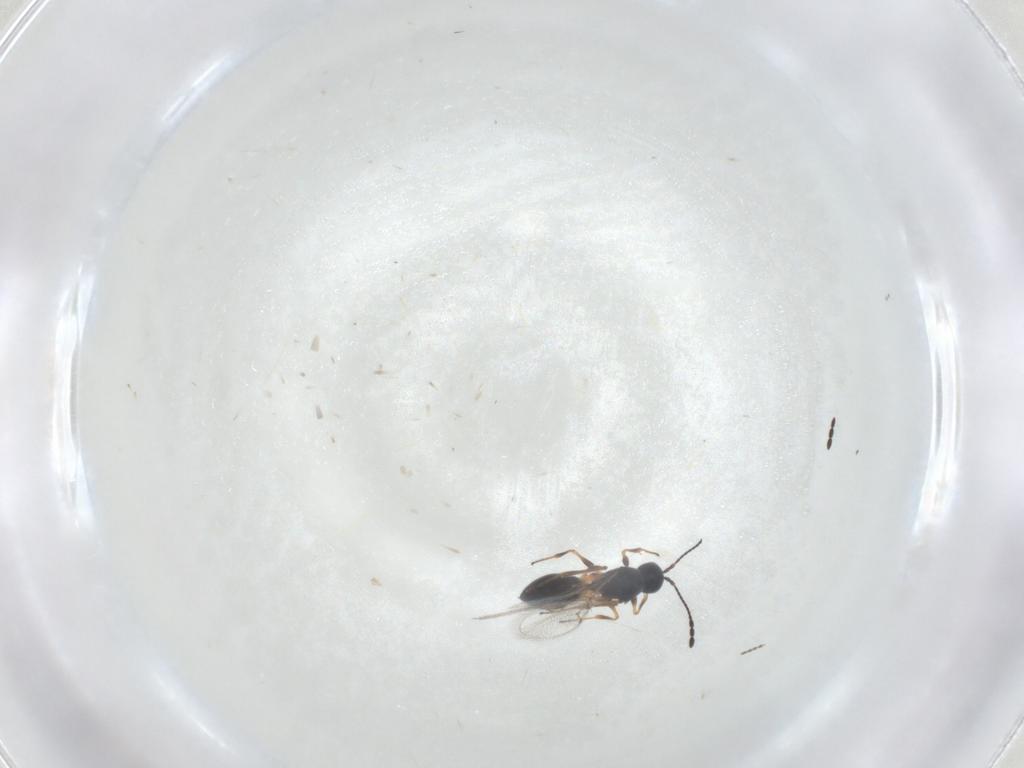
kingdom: Animalia
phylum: Arthropoda
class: Insecta
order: Hymenoptera
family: Figitidae
